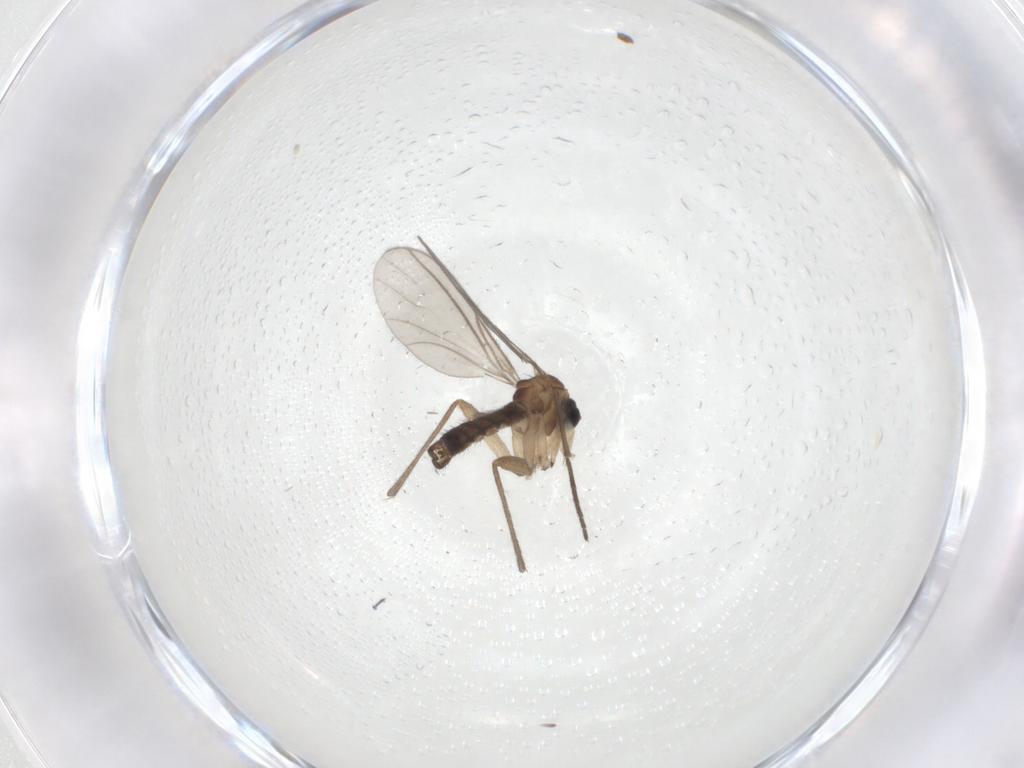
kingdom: Animalia
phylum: Arthropoda
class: Insecta
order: Diptera
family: Sciaridae
